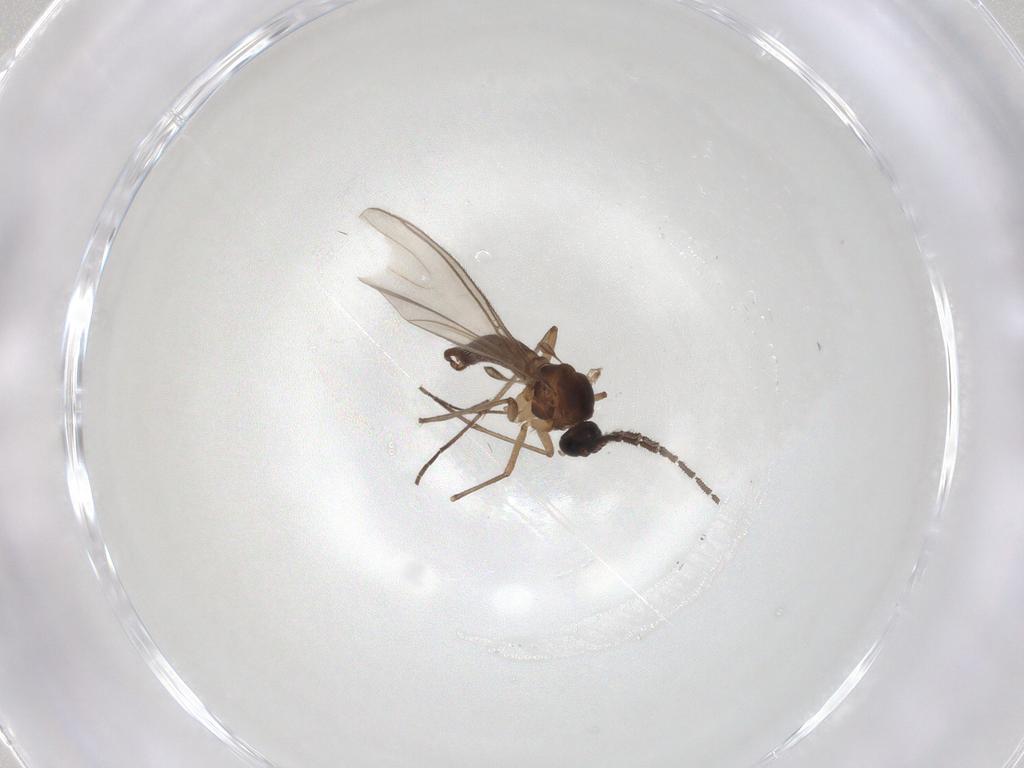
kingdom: Animalia
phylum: Arthropoda
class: Insecta
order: Diptera
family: Sciaridae
